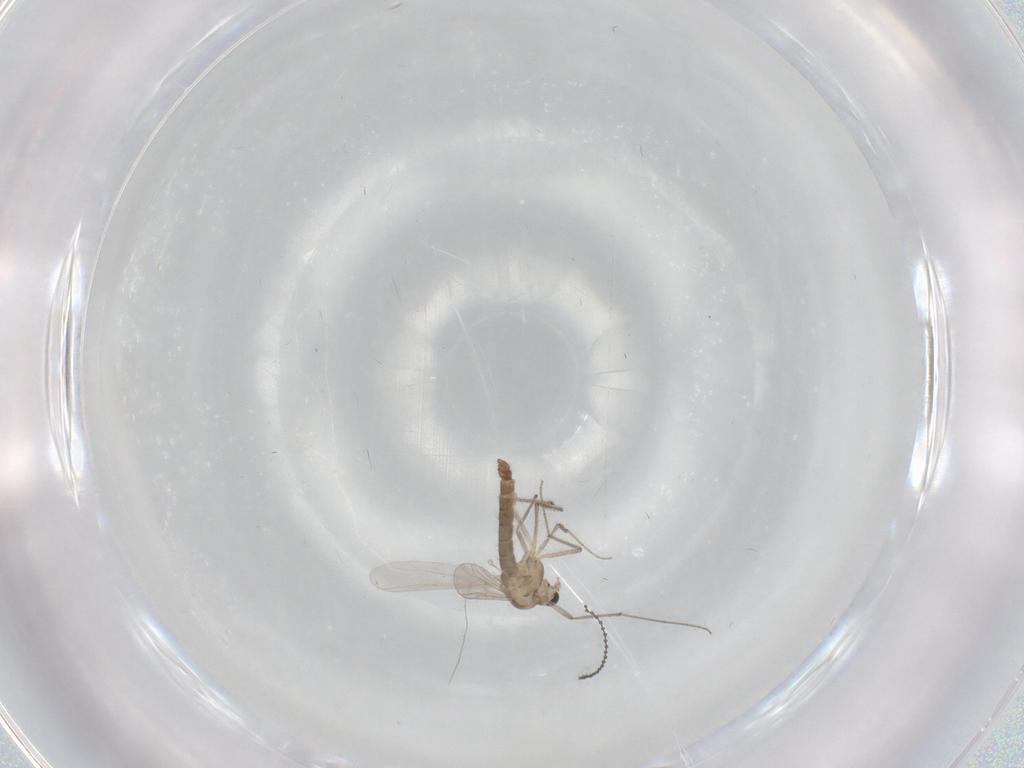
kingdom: Animalia
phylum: Arthropoda
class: Insecta
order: Diptera
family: Chironomidae
